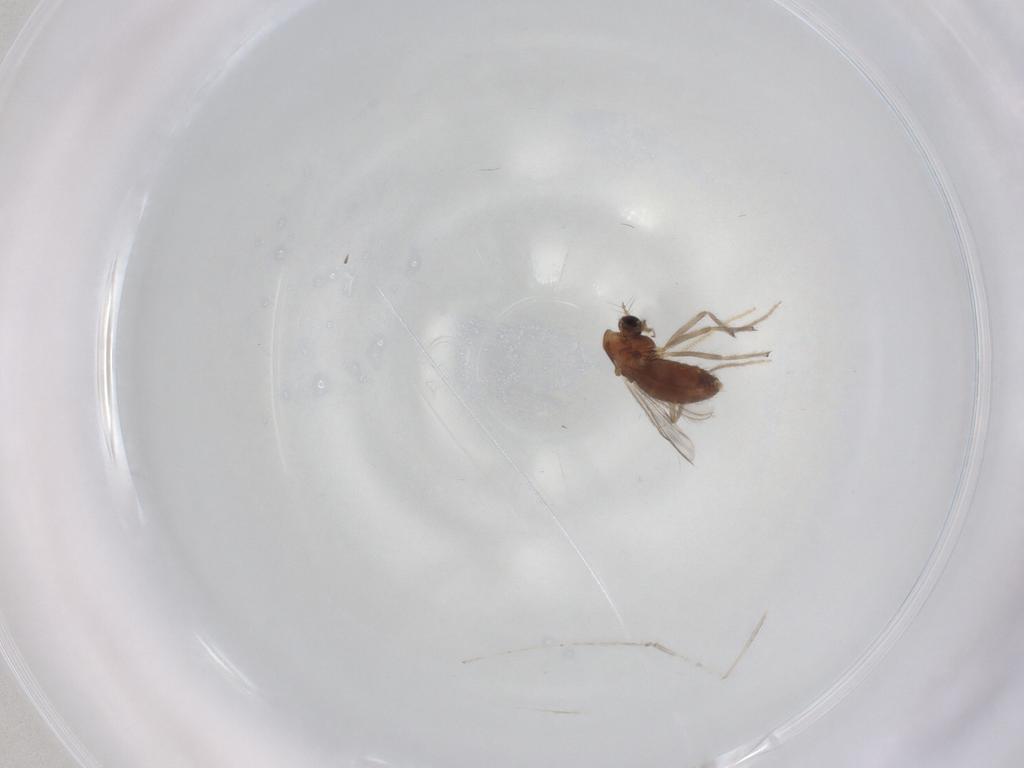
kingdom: Animalia
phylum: Arthropoda
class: Insecta
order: Diptera
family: Chironomidae
